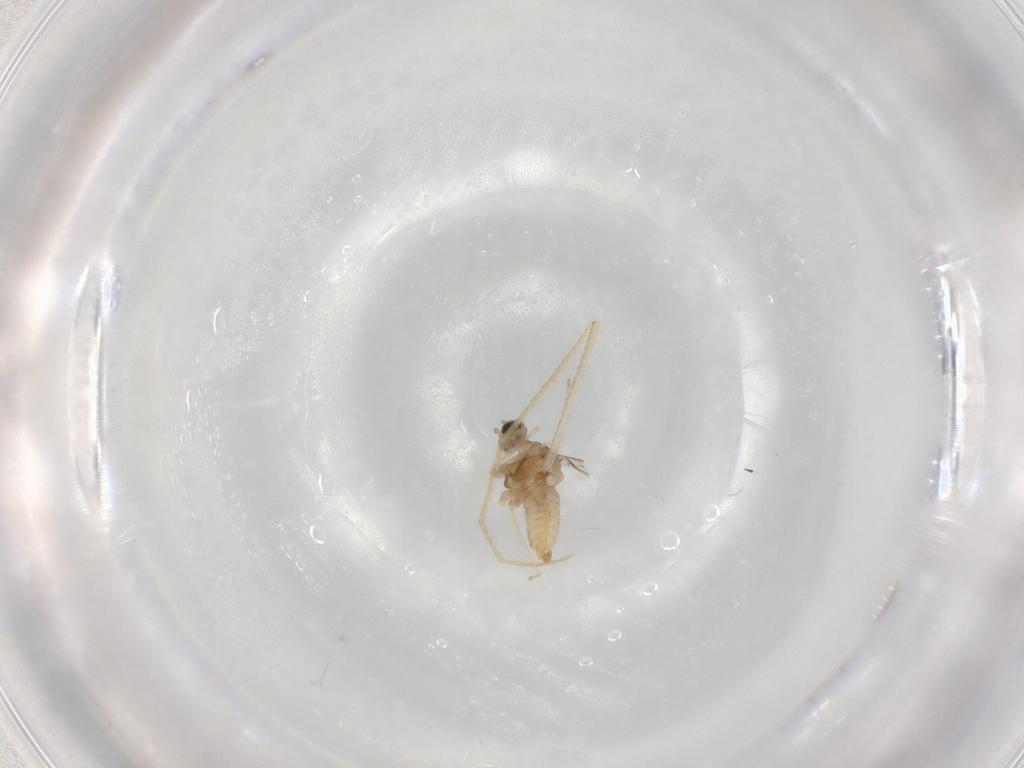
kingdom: Animalia
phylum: Arthropoda
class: Insecta
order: Diptera
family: Cecidomyiidae
